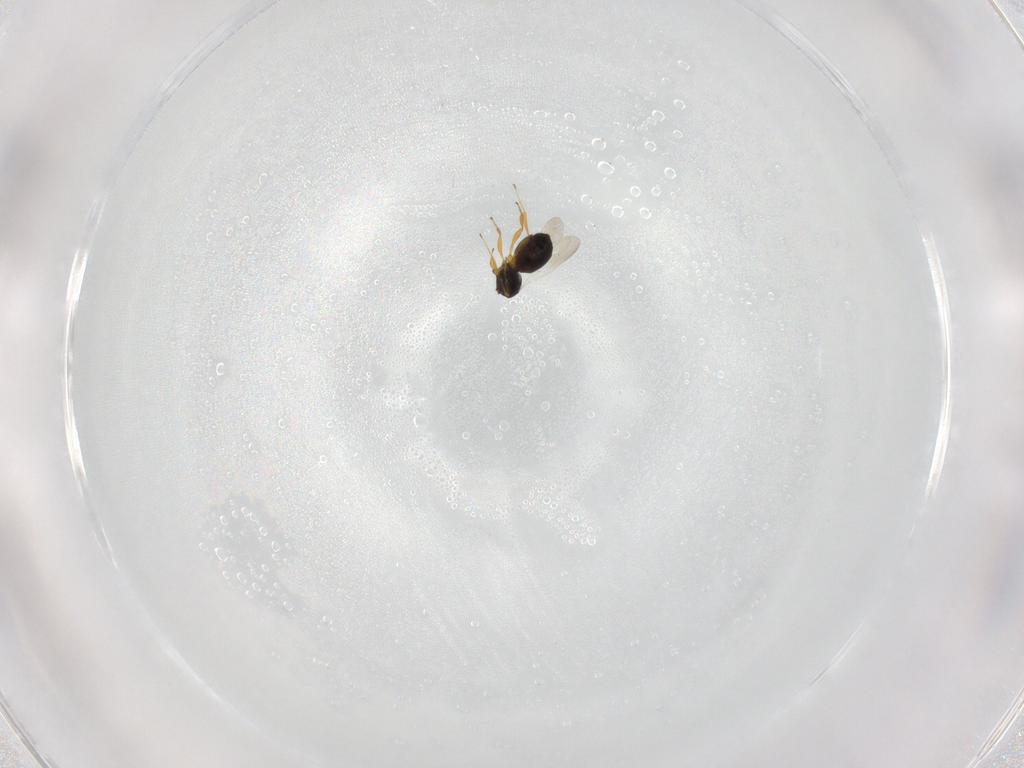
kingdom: Animalia
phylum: Arthropoda
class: Insecta
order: Hymenoptera
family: Platygastridae
